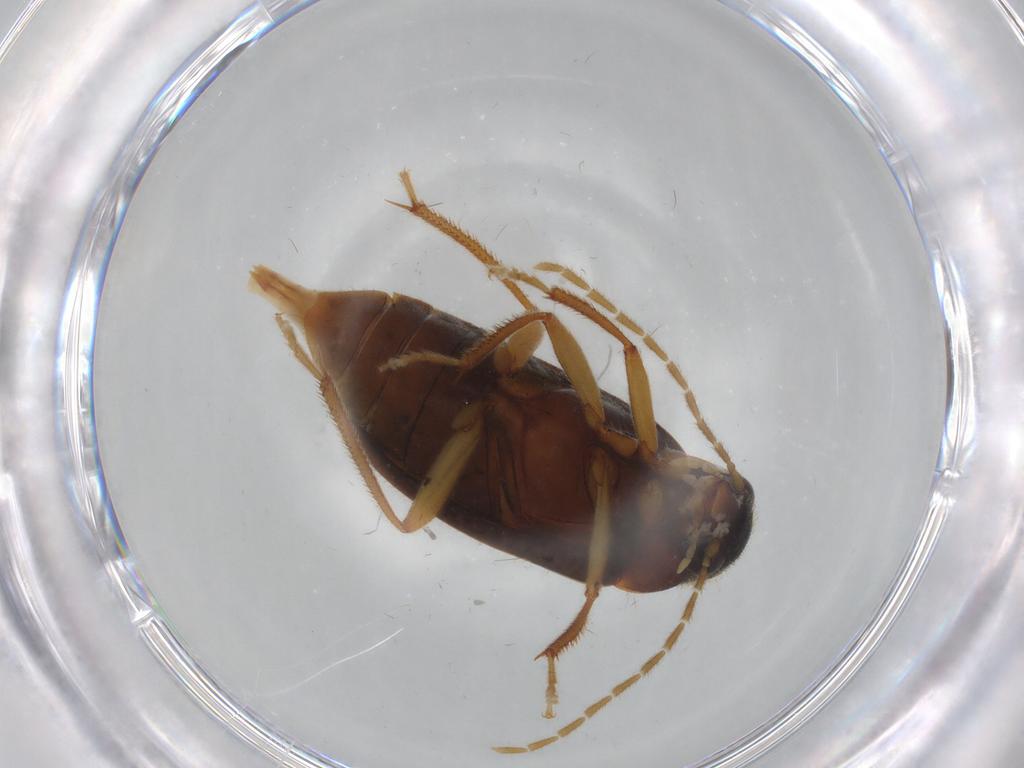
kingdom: Animalia
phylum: Arthropoda
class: Insecta
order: Coleoptera
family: Ptilodactylidae
